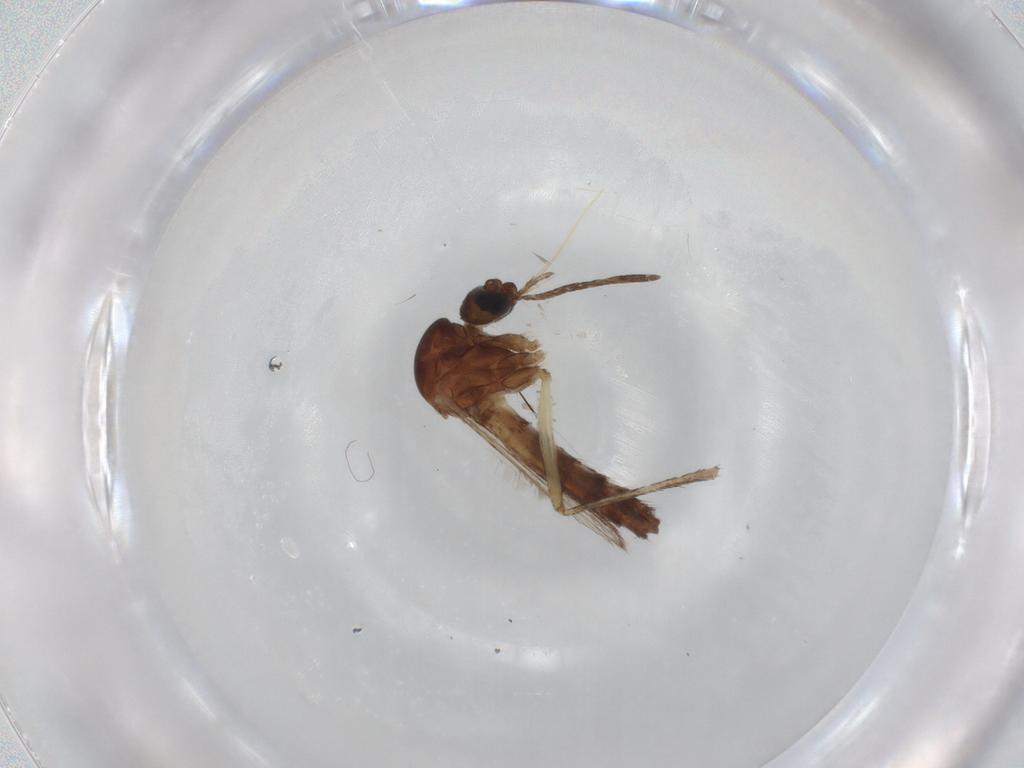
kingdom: Animalia
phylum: Arthropoda
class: Insecta
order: Diptera
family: Culicidae
